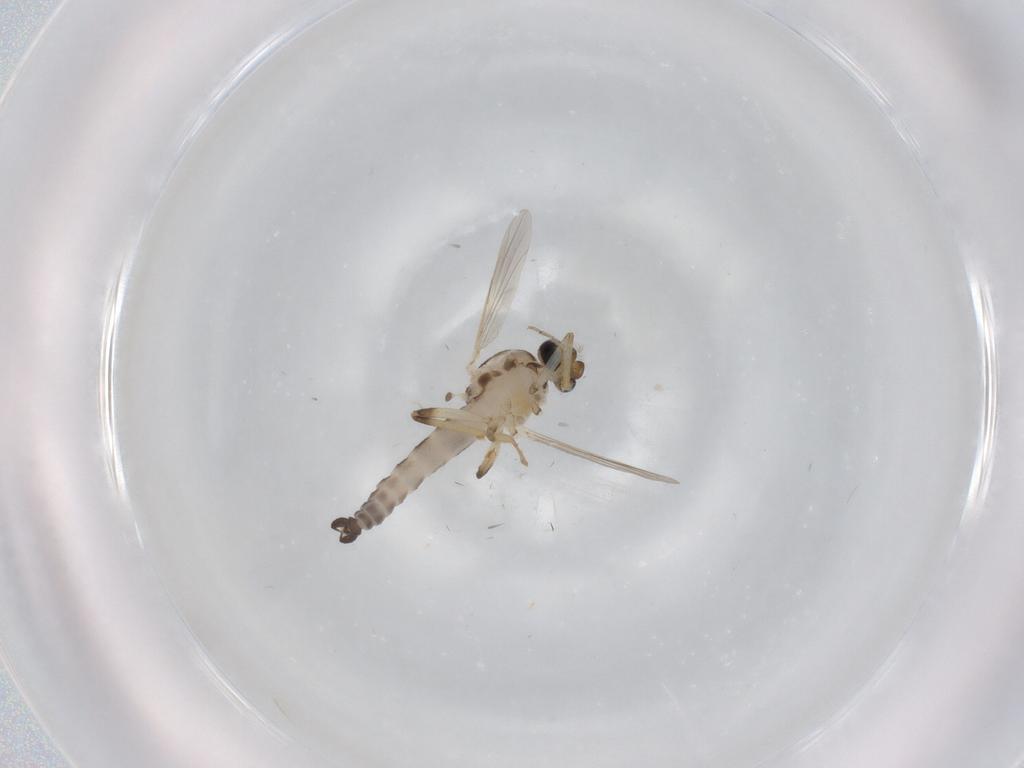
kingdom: Animalia
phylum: Arthropoda
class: Insecta
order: Diptera
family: Ceratopogonidae
